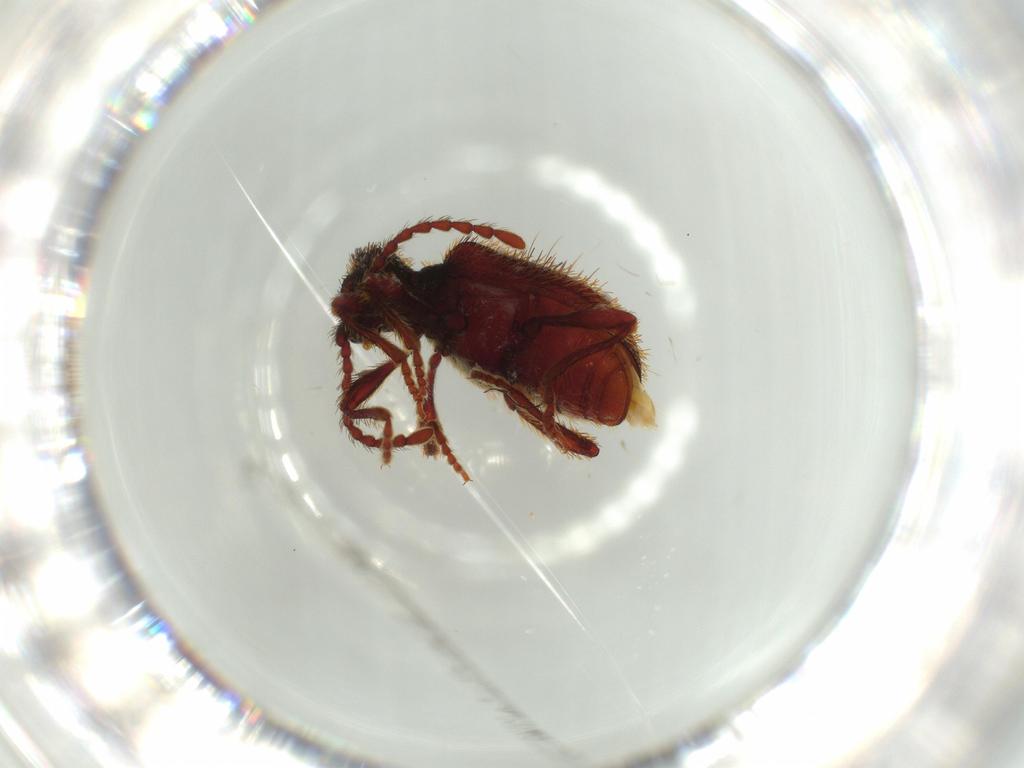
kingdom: Animalia
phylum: Arthropoda
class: Insecta
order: Coleoptera
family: Ptinidae
